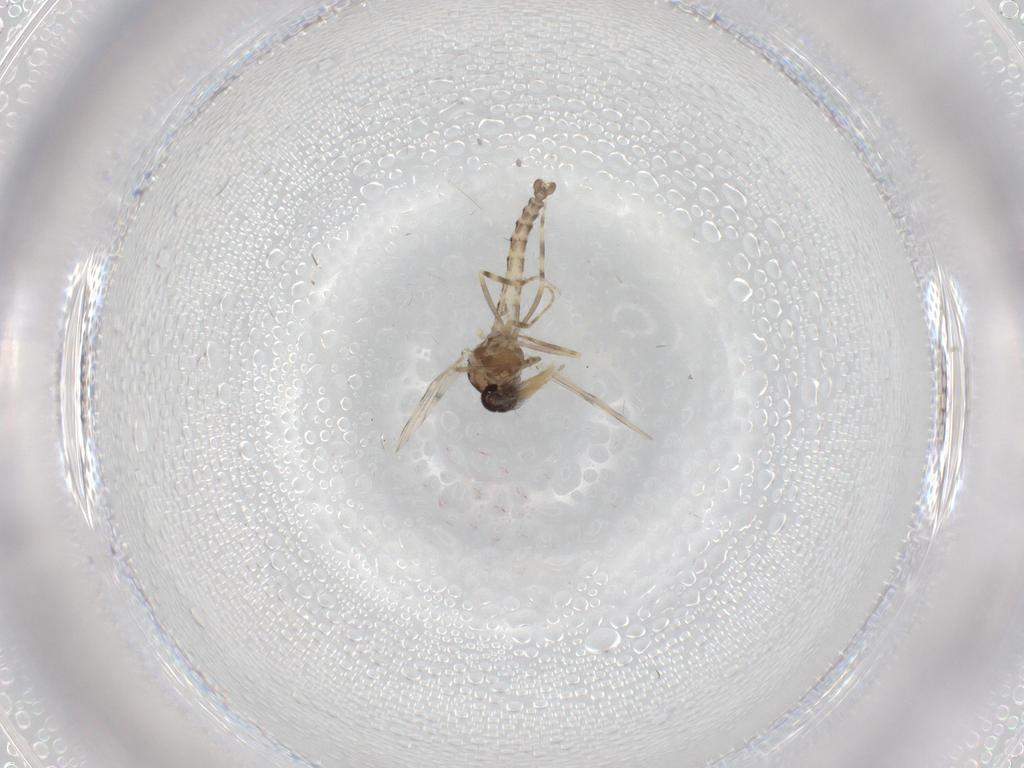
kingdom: Animalia
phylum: Arthropoda
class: Insecta
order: Diptera
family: Ceratopogonidae
